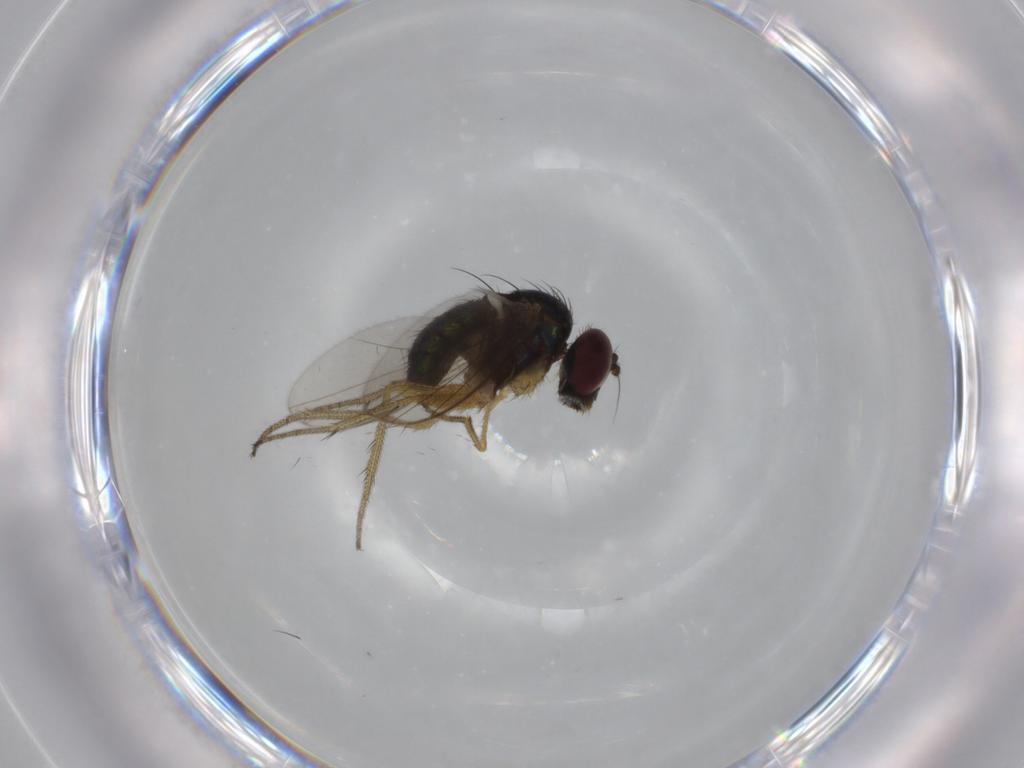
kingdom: Animalia
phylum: Arthropoda
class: Insecta
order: Diptera
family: Dolichopodidae
